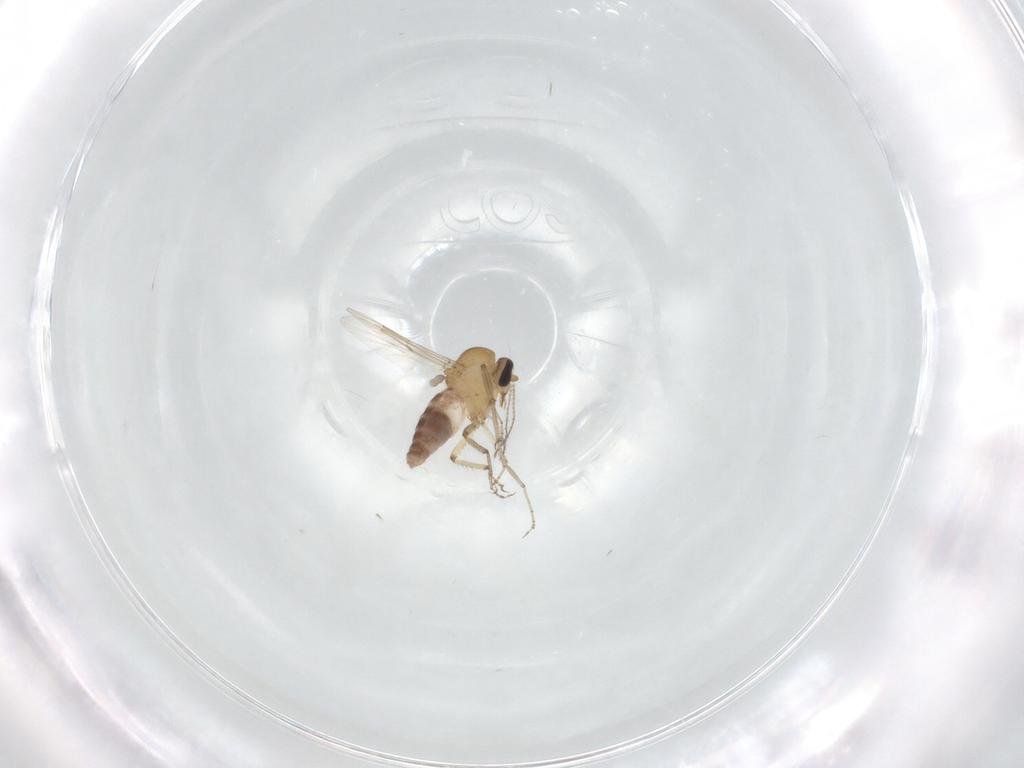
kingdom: Animalia
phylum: Arthropoda
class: Insecta
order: Diptera
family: Ceratopogonidae
